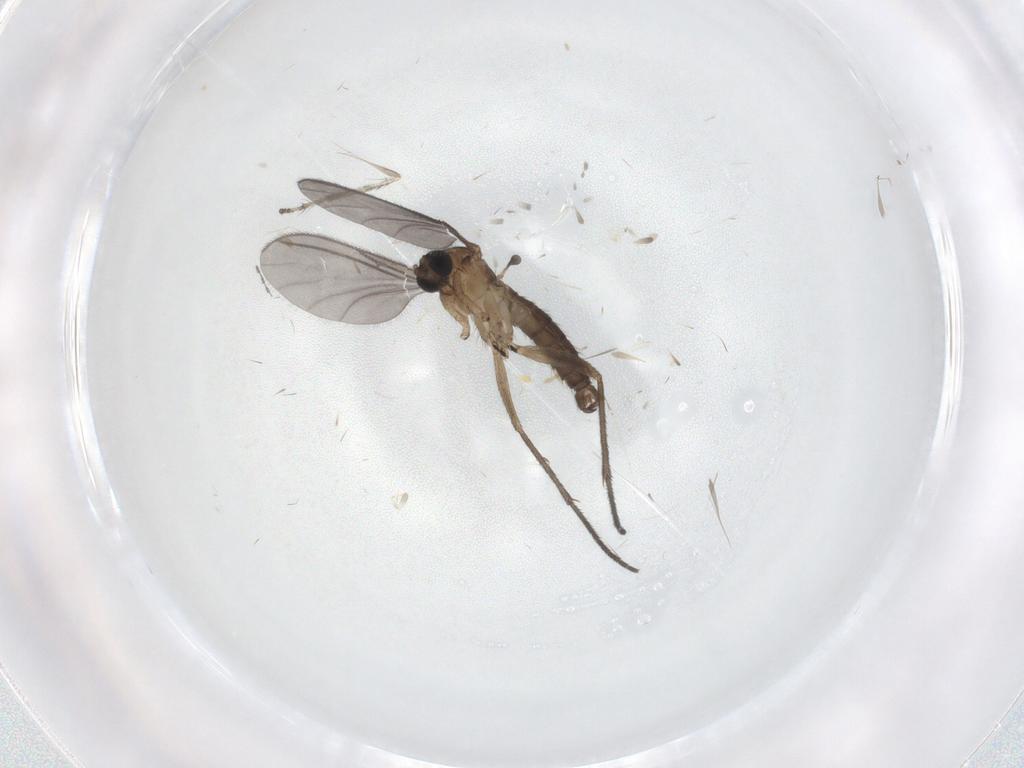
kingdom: Animalia
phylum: Arthropoda
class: Insecta
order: Diptera
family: Sciaridae
